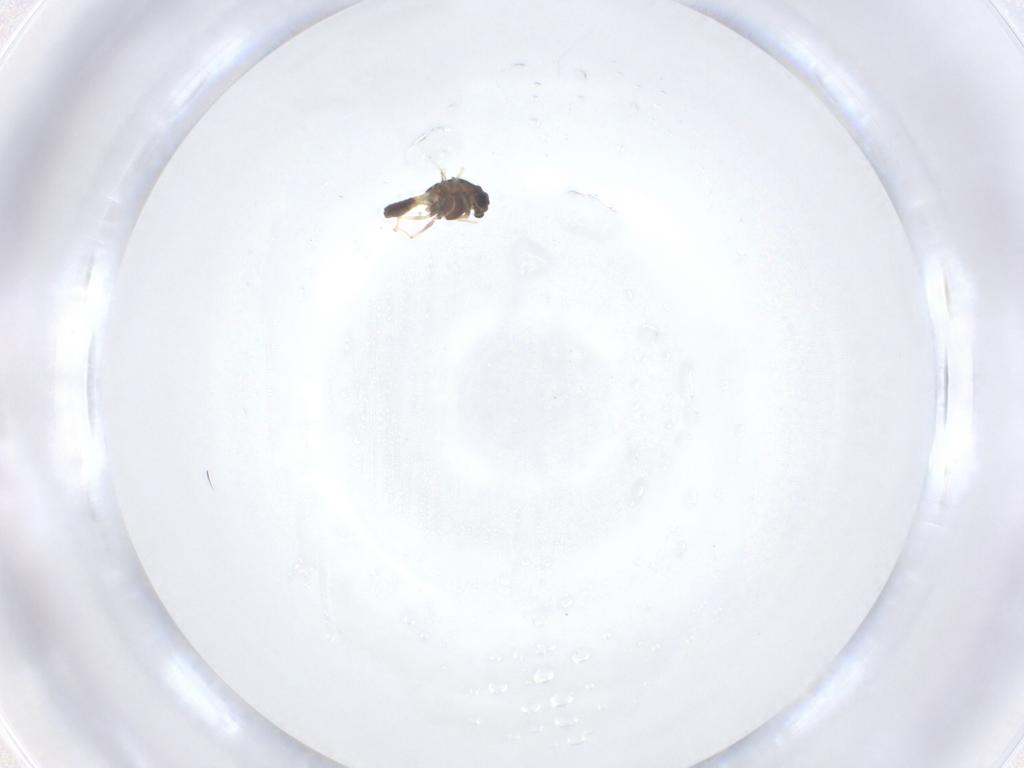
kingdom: Animalia
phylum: Arthropoda
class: Insecta
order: Diptera
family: Chironomidae
